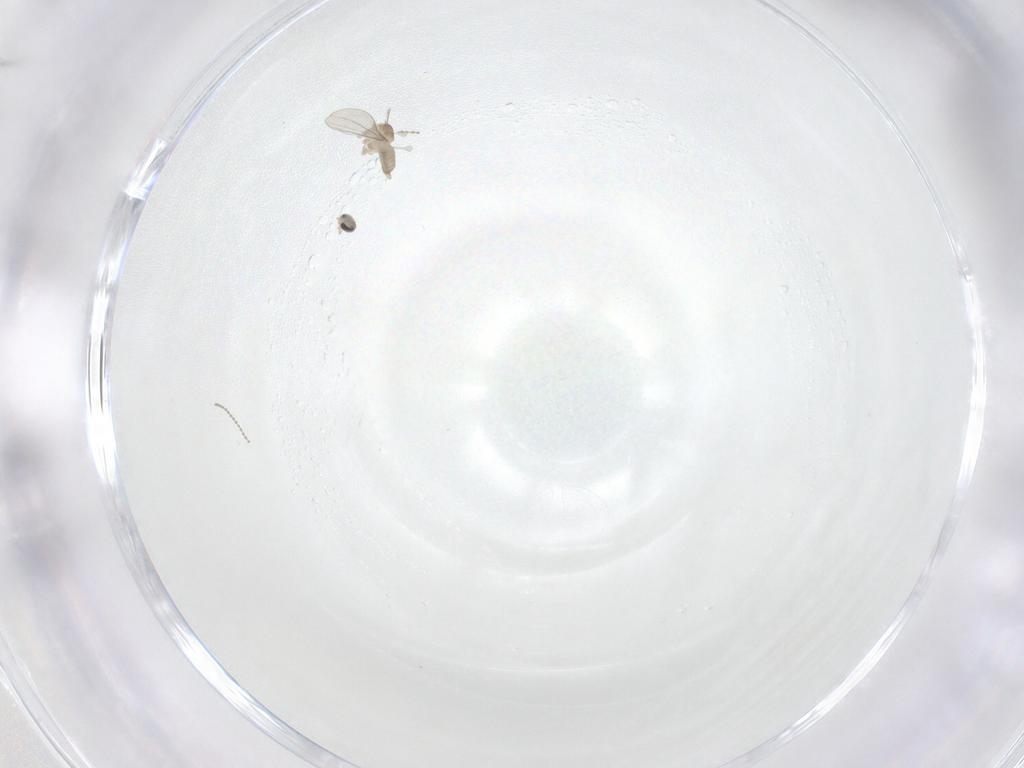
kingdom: Animalia
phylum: Arthropoda
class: Insecta
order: Diptera
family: Cecidomyiidae
